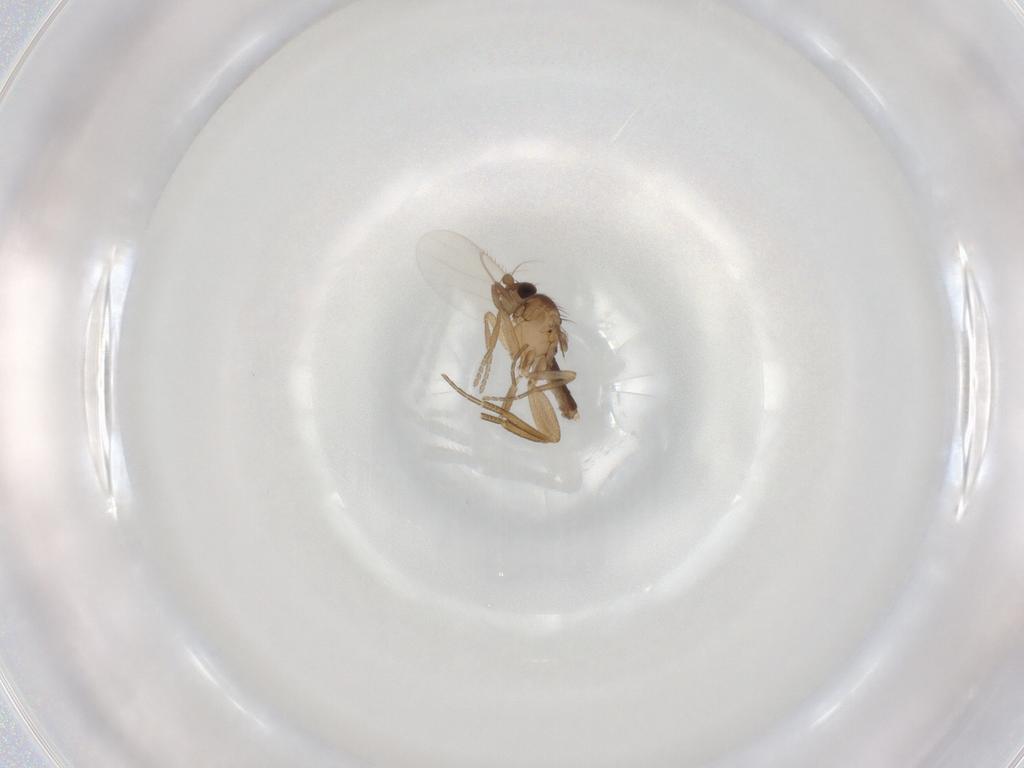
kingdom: Animalia
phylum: Arthropoda
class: Insecta
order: Diptera
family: Phoridae
